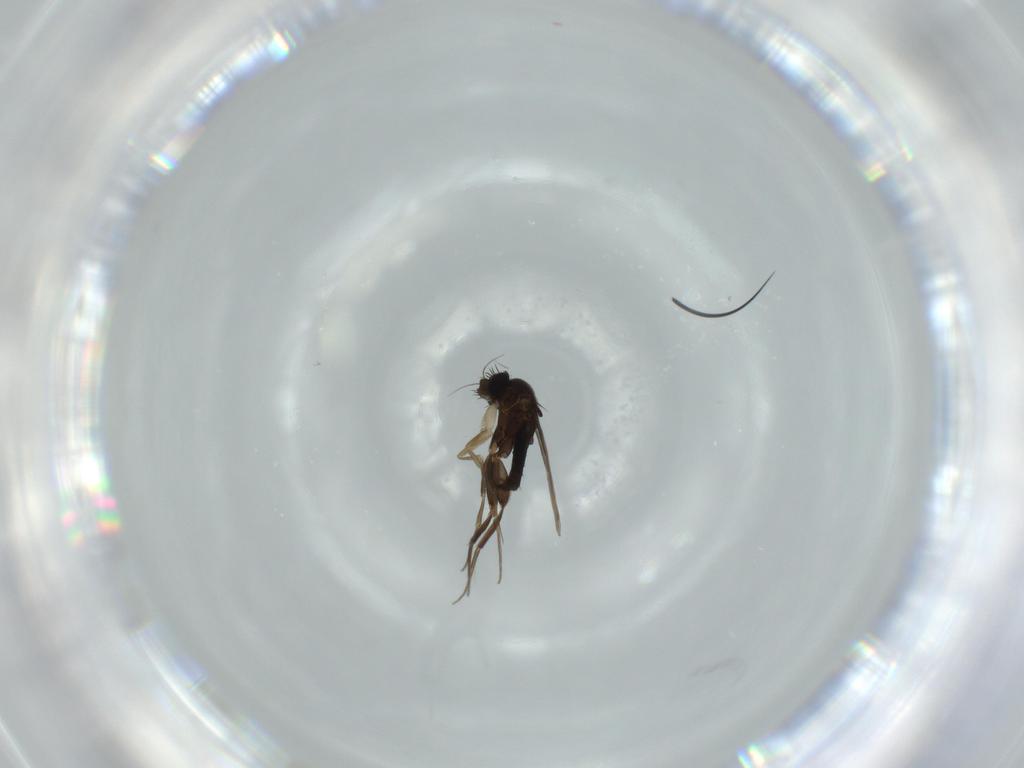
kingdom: Animalia
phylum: Arthropoda
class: Insecta
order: Diptera
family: Phoridae
